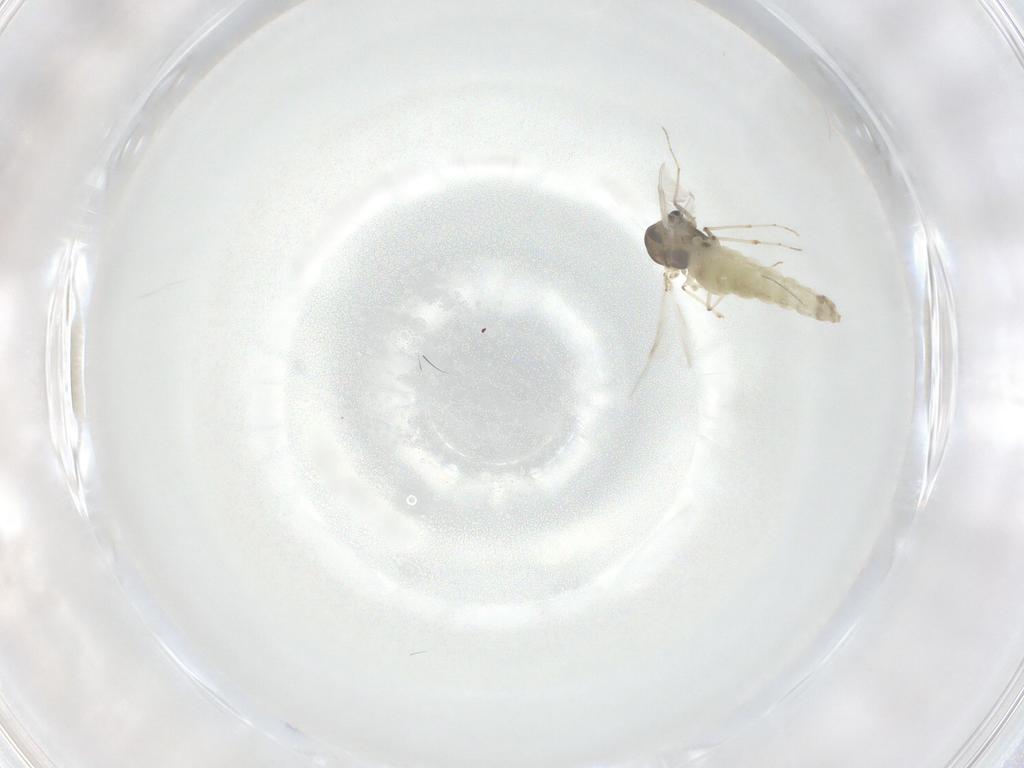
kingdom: Animalia
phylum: Arthropoda
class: Insecta
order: Diptera
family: Chironomidae
